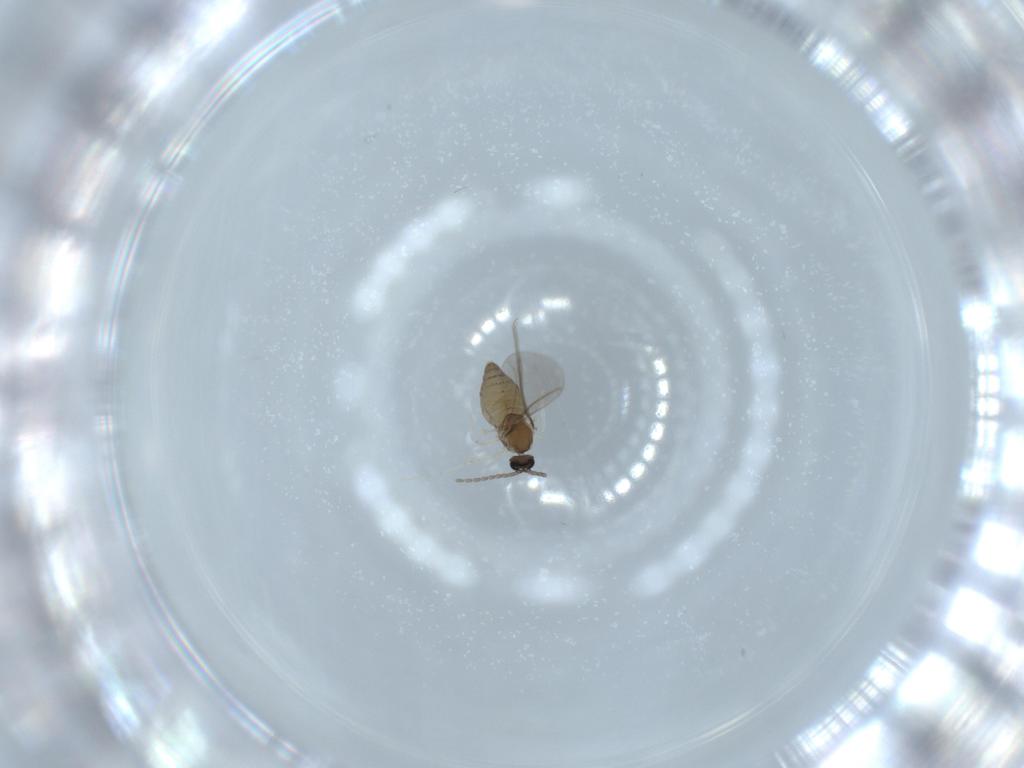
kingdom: Animalia
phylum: Arthropoda
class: Insecta
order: Diptera
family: Cecidomyiidae
